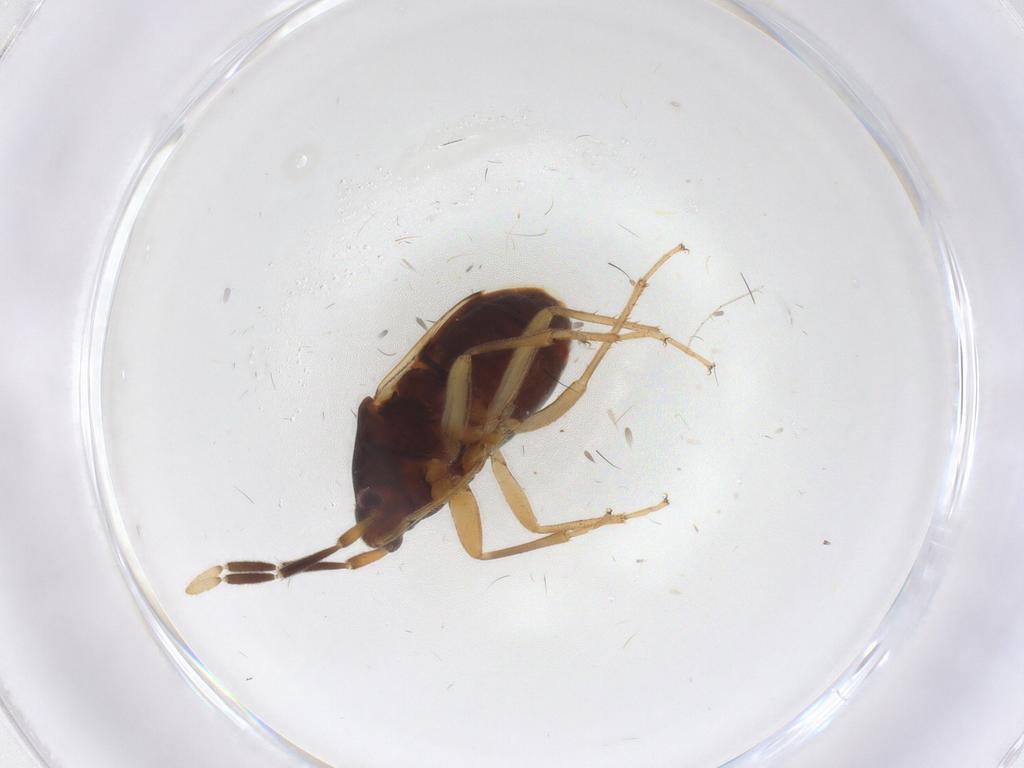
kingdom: Animalia
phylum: Arthropoda
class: Insecta
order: Hemiptera
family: Rhyparochromidae
